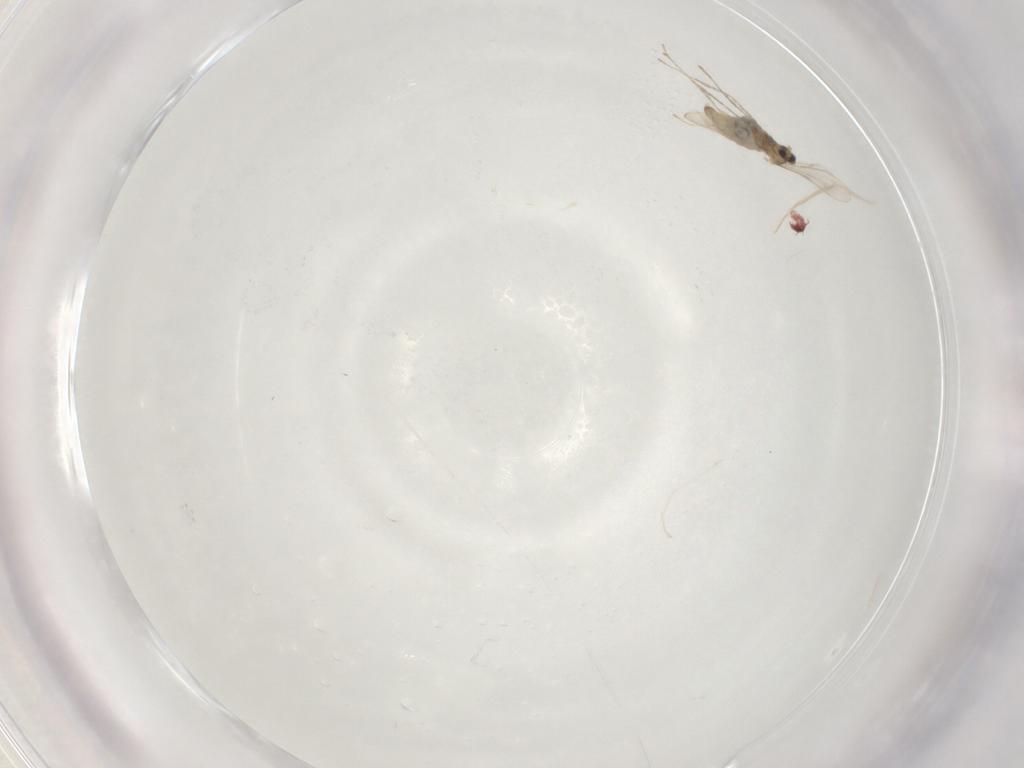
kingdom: Animalia
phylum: Arthropoda
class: Insecta
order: Diptera
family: Cecidomyiidae
